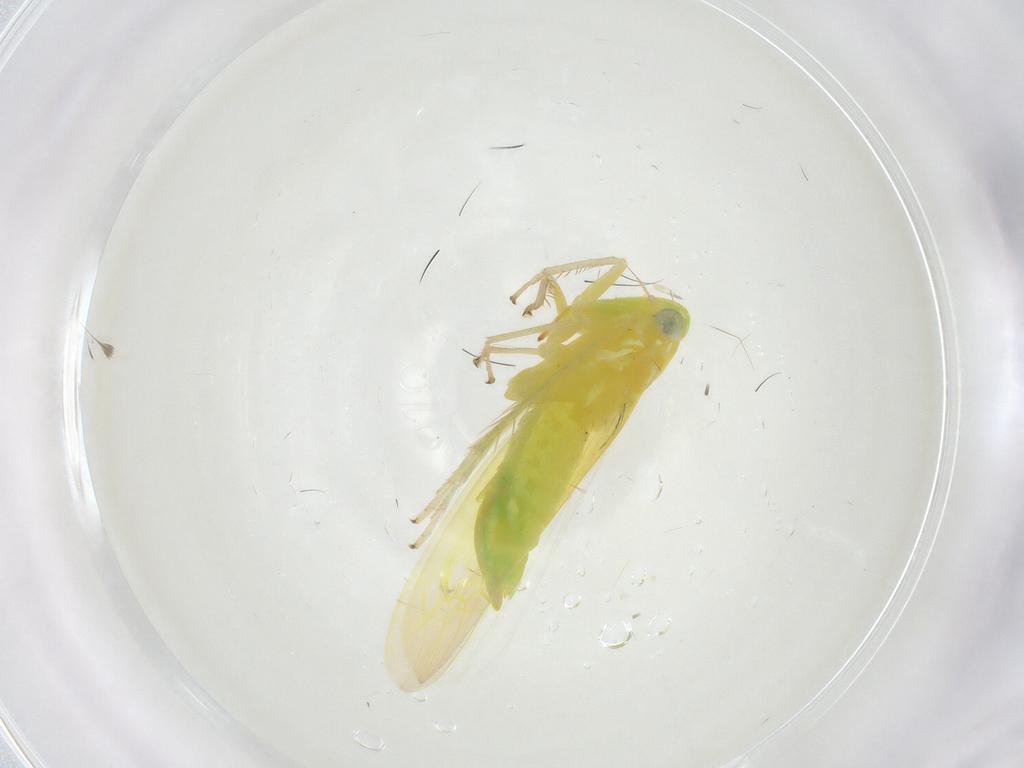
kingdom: Animalia
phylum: Arthropoda
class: Insecta
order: Hemiptera
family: Cicadellidae
